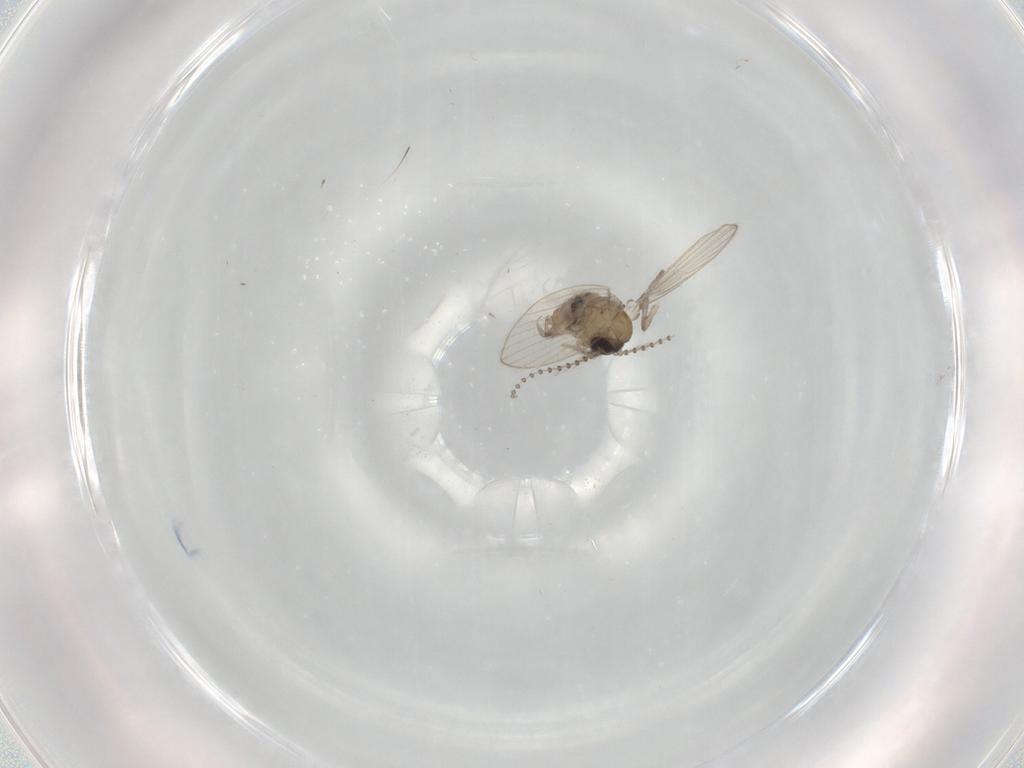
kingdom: Animalia
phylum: Arthropoda
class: Insecta
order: Diptera
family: Psychodidae
